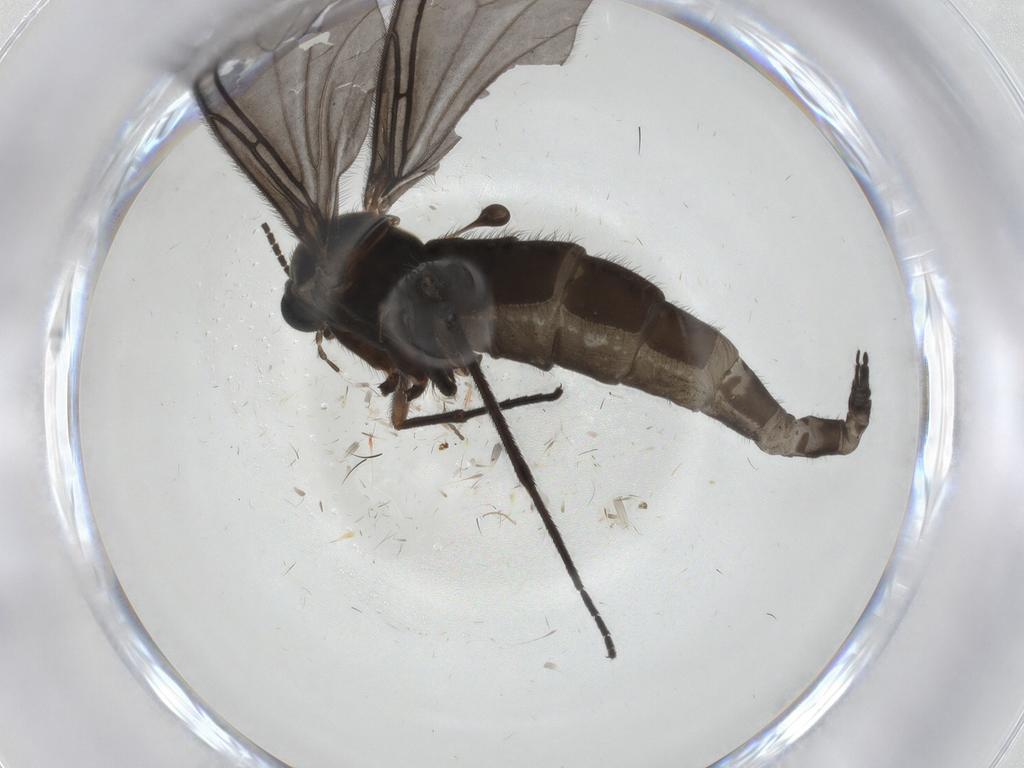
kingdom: Animalia
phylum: Arthropoda
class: Insecta
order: Diptera
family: Sciaridae
